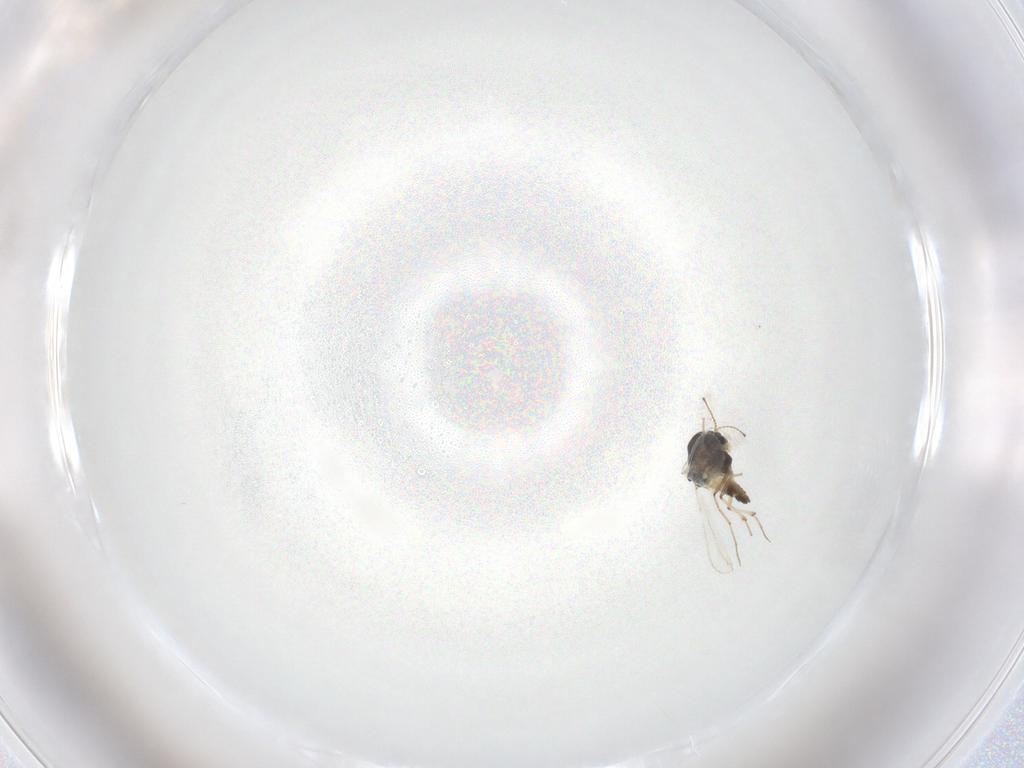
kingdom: Animalia
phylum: Arthropoda
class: Insecta
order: Diptera
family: Chironomidae
